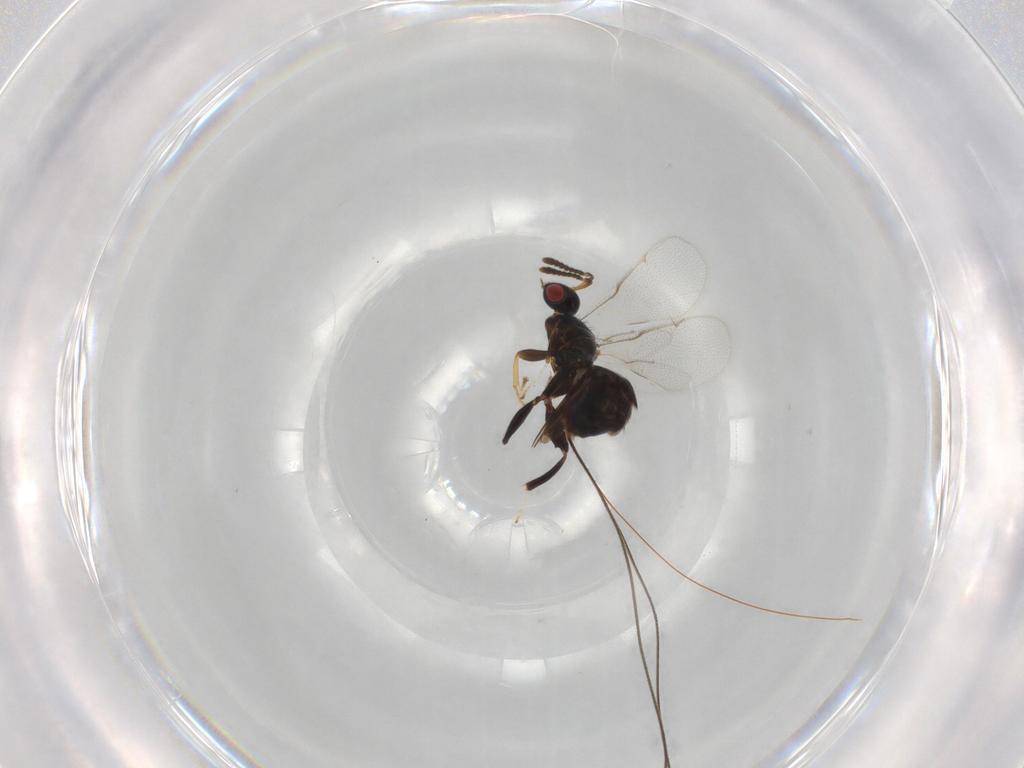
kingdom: Animalia
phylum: Arthropoda
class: Insecta
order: Hymenoptera
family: Torymidae
